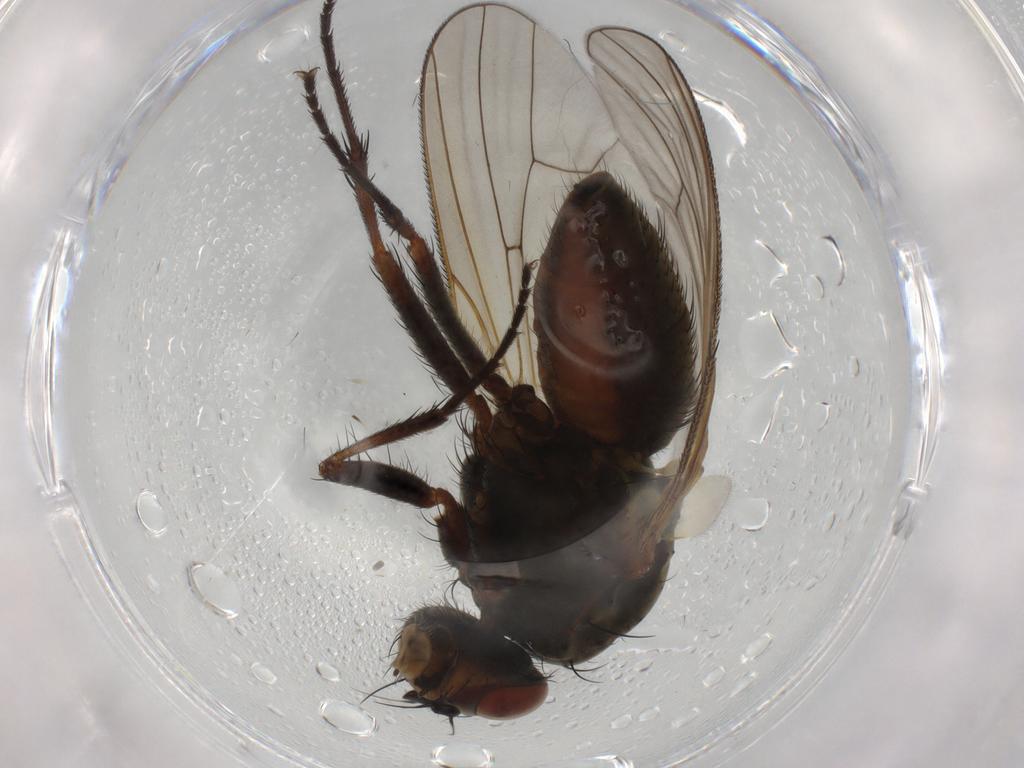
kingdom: Animalia
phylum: Arthropoda
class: Insecta
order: Diptera
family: Anthomyiidae
